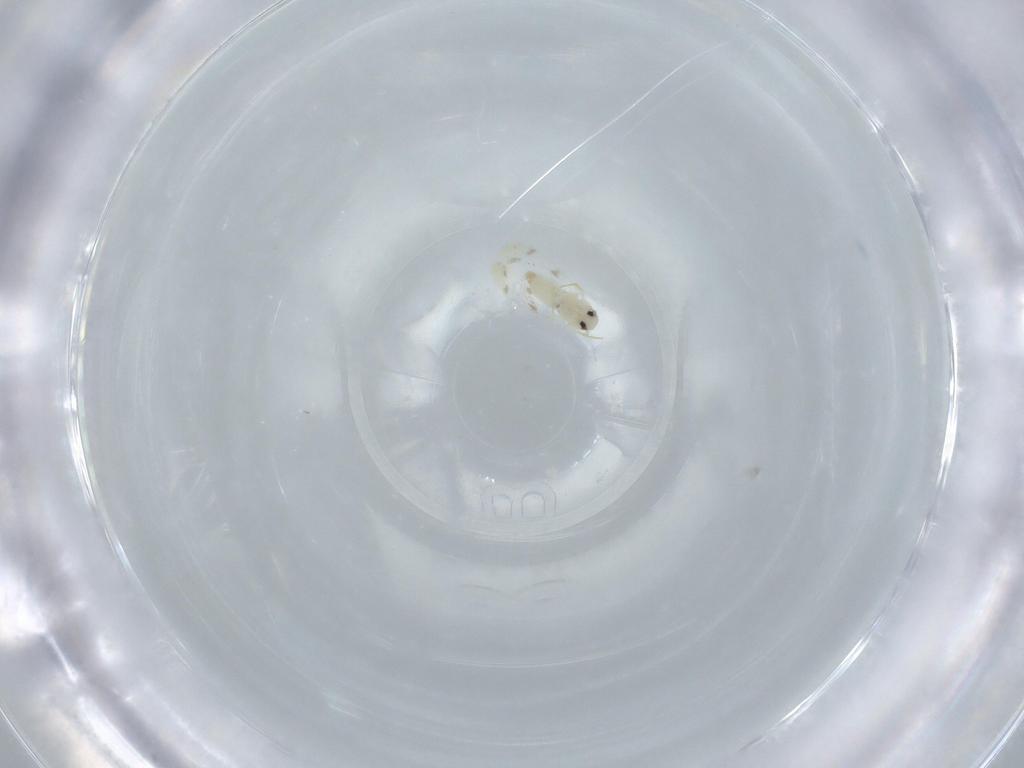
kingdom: Animalia
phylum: Arthropoda
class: Insecta
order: Hemiptera
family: Aleyrodidae
